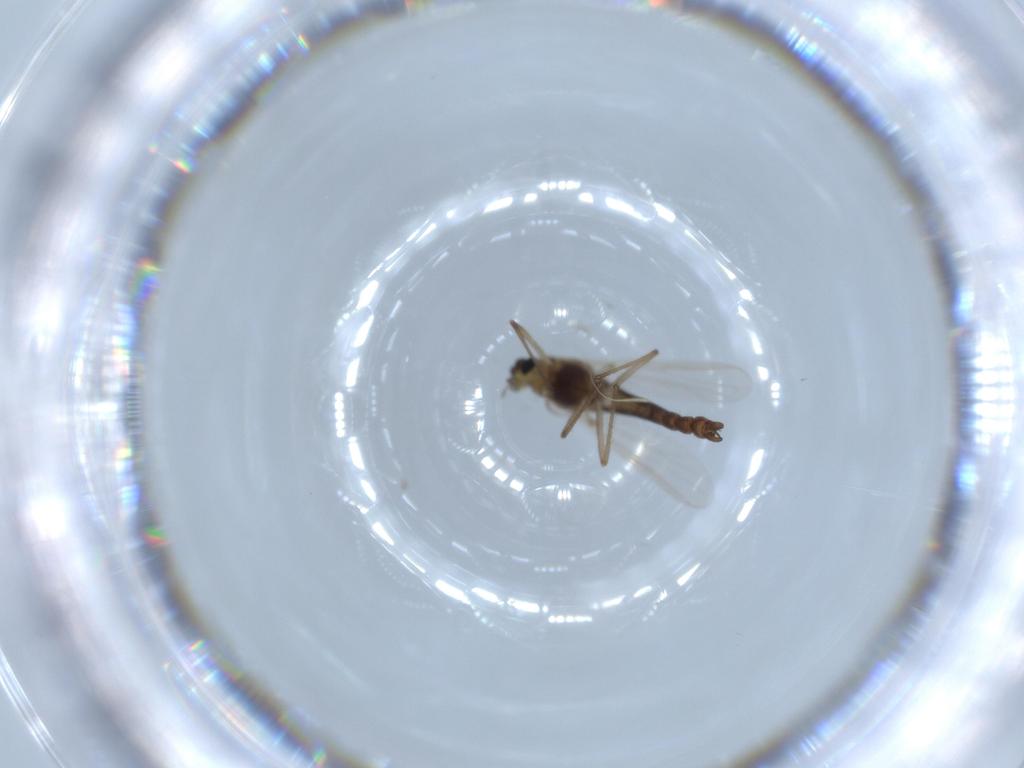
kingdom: Animalia
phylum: Arthropoda
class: Insecta
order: Diptera
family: Chironomidae
